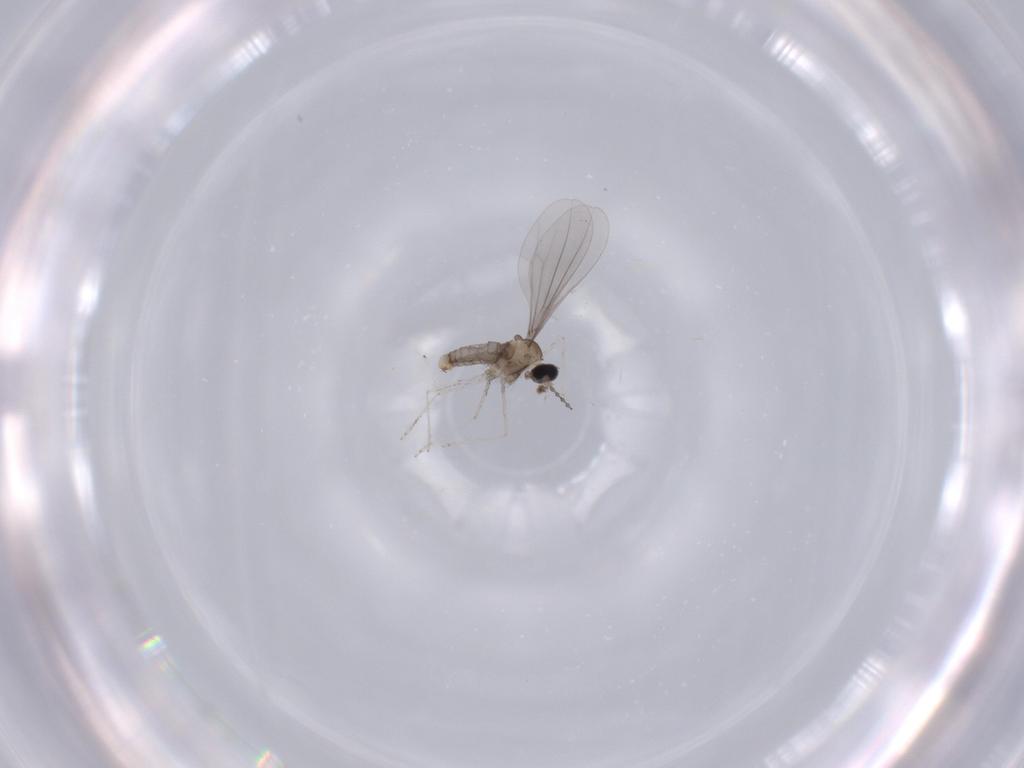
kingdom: Animalia
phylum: Arthropoda
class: Insecta
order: Diptera
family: Cecidomyiidae
